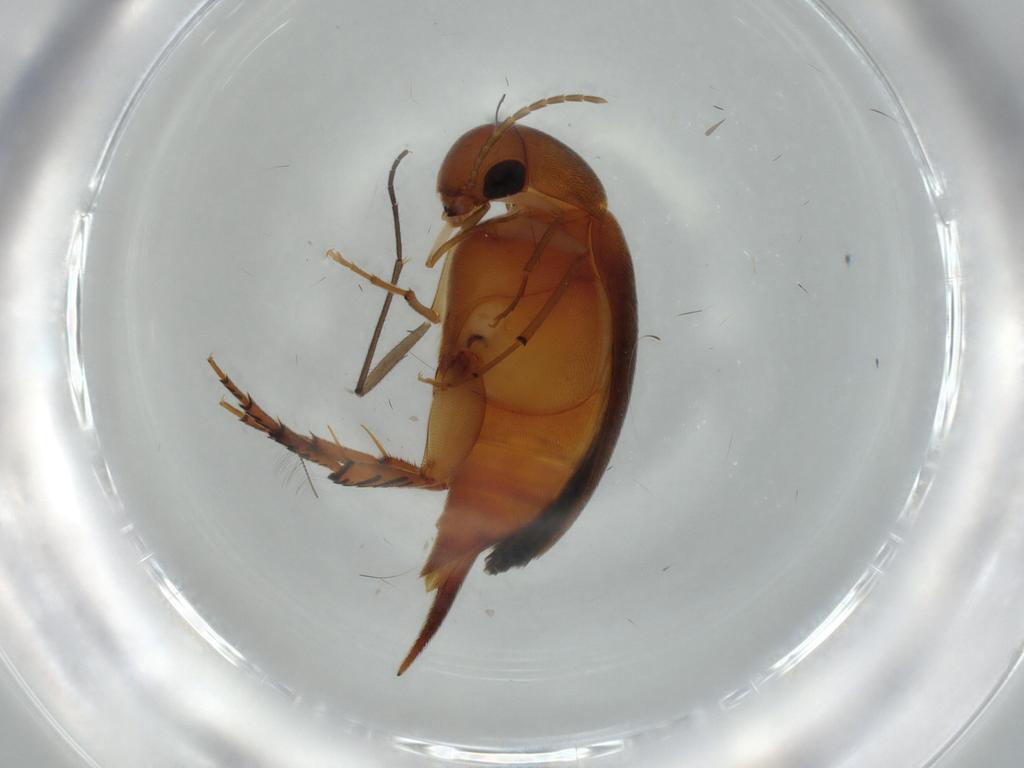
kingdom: Animalia
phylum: Arthropoda
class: Insecta
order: Coleoptera
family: Mordellidae
